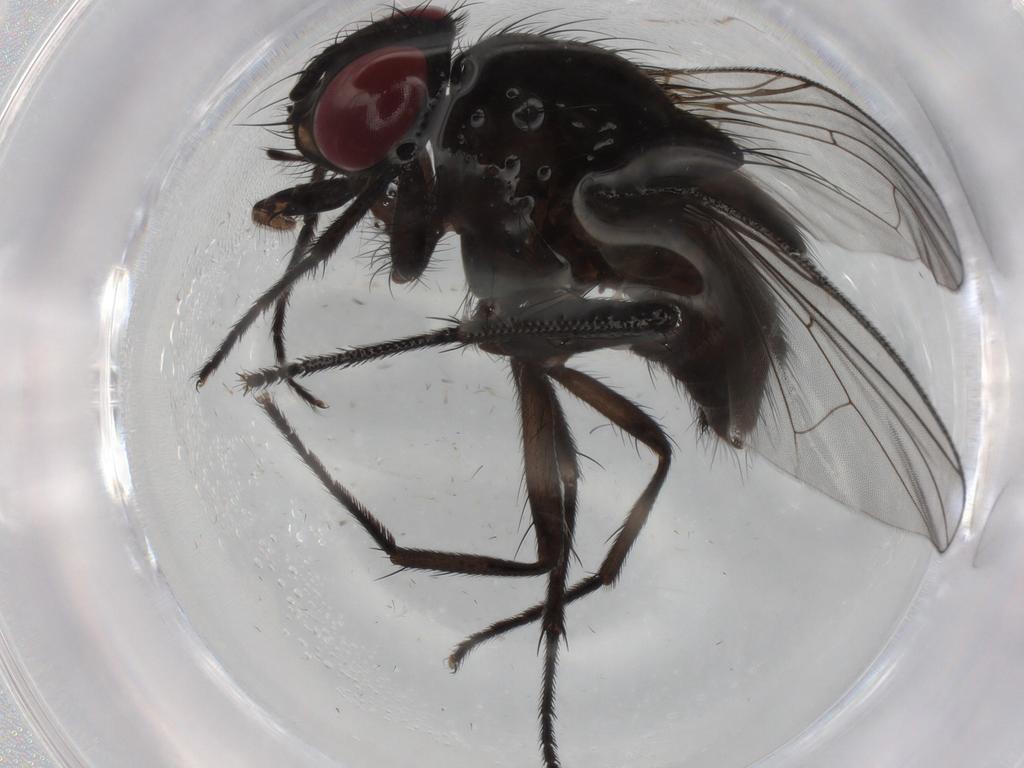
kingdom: Animalia
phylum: Arthropoda
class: Insecta
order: Diptera
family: Muscidae
